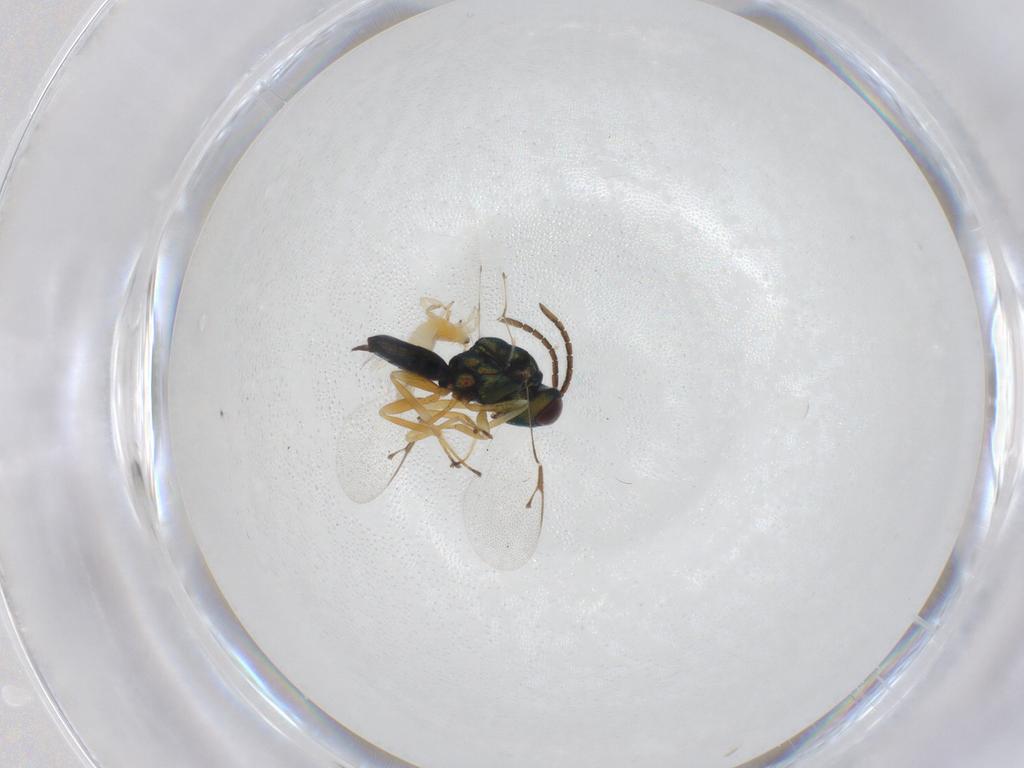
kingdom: Animalia
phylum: Arthropoda
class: Insecta
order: Hymenoptera
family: Pteromalidae
